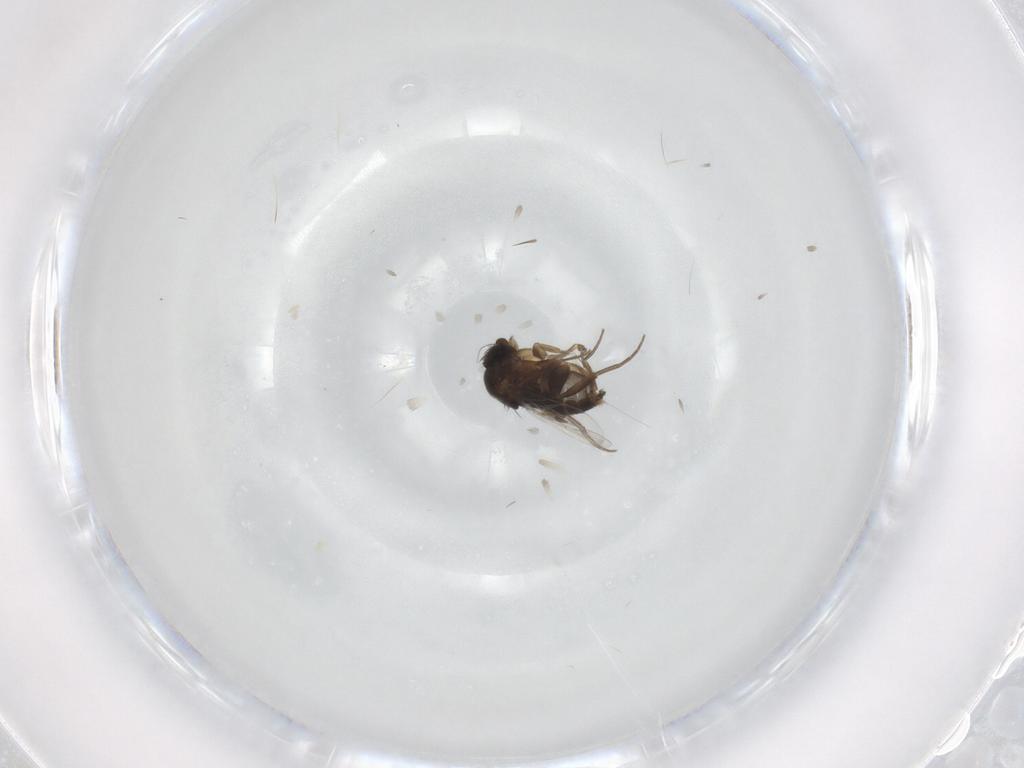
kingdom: Animalia
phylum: Arthropoda
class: Insecta
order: Diptera
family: Phoridae
